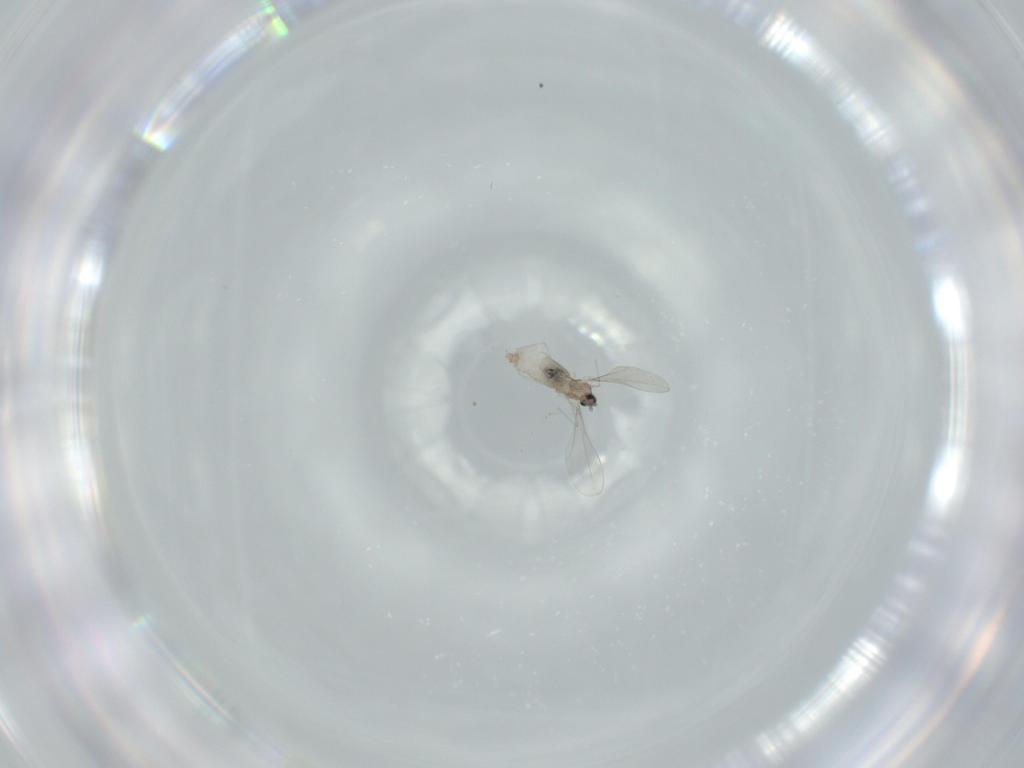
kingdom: Animalia
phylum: Arthropoda
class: Insecta
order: Diptera
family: Cecidomyiidae
